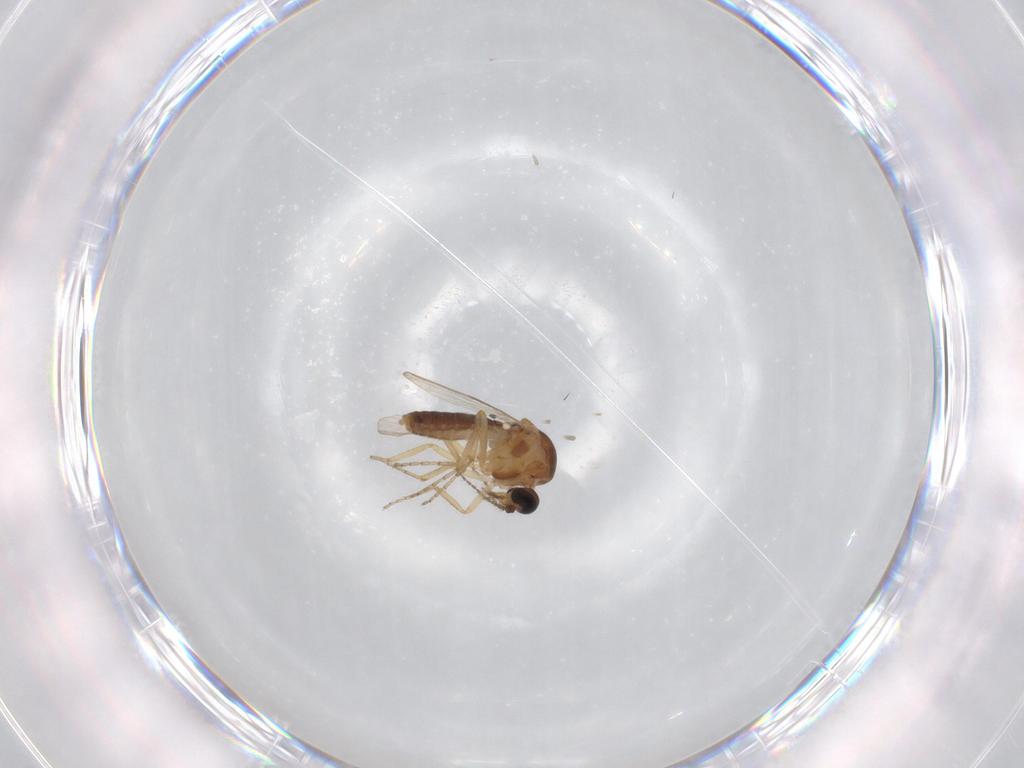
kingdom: Animalia
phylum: Arthropoda
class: Insecta
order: Diptera
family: Ceratopogonidae
